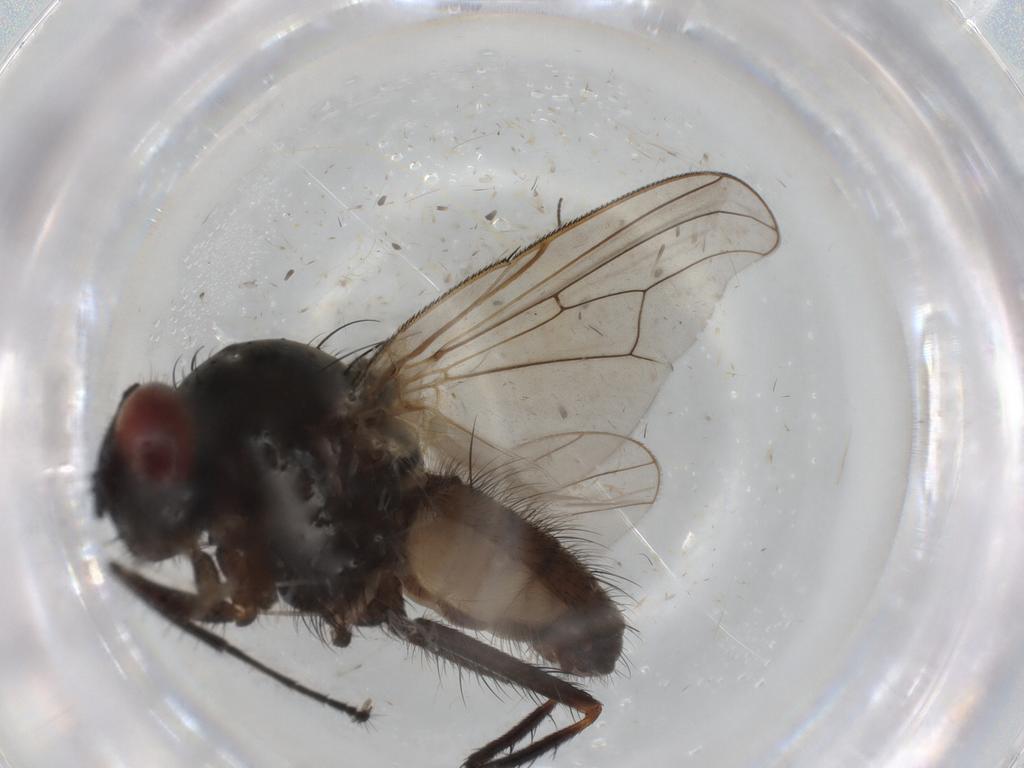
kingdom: Animalia
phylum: Arthropoda
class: Insecta
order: Diptera
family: Anthomyiidae
